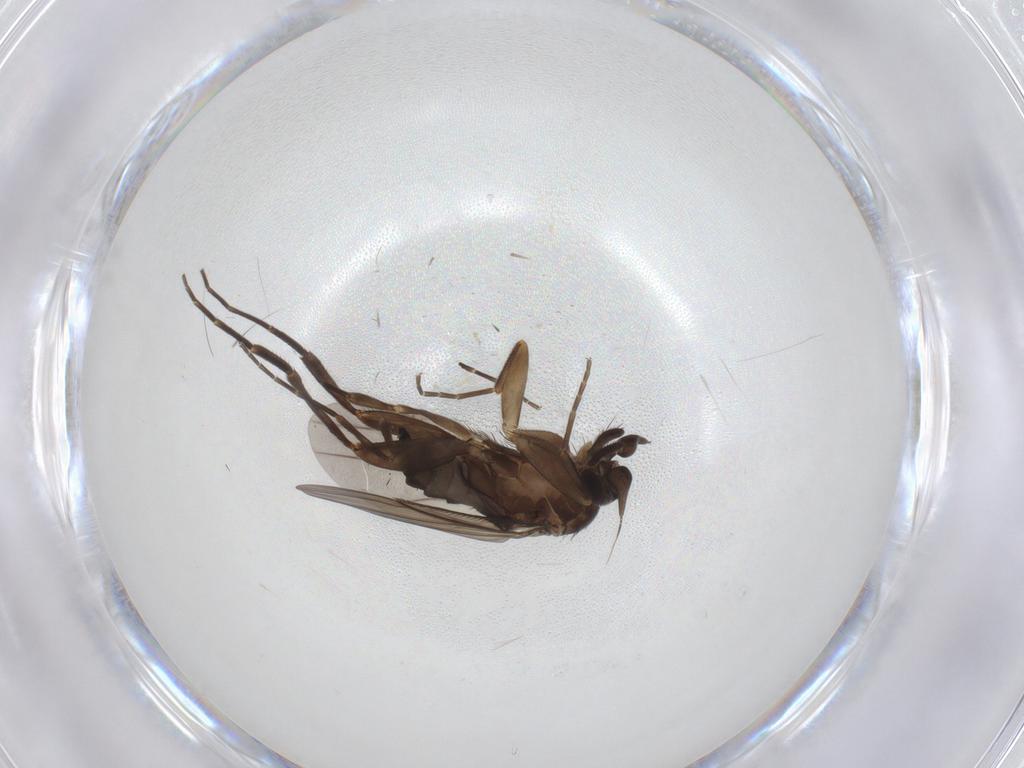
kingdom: Animalia
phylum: Arthropoda
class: Insecta
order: Diptera
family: Phoridae
